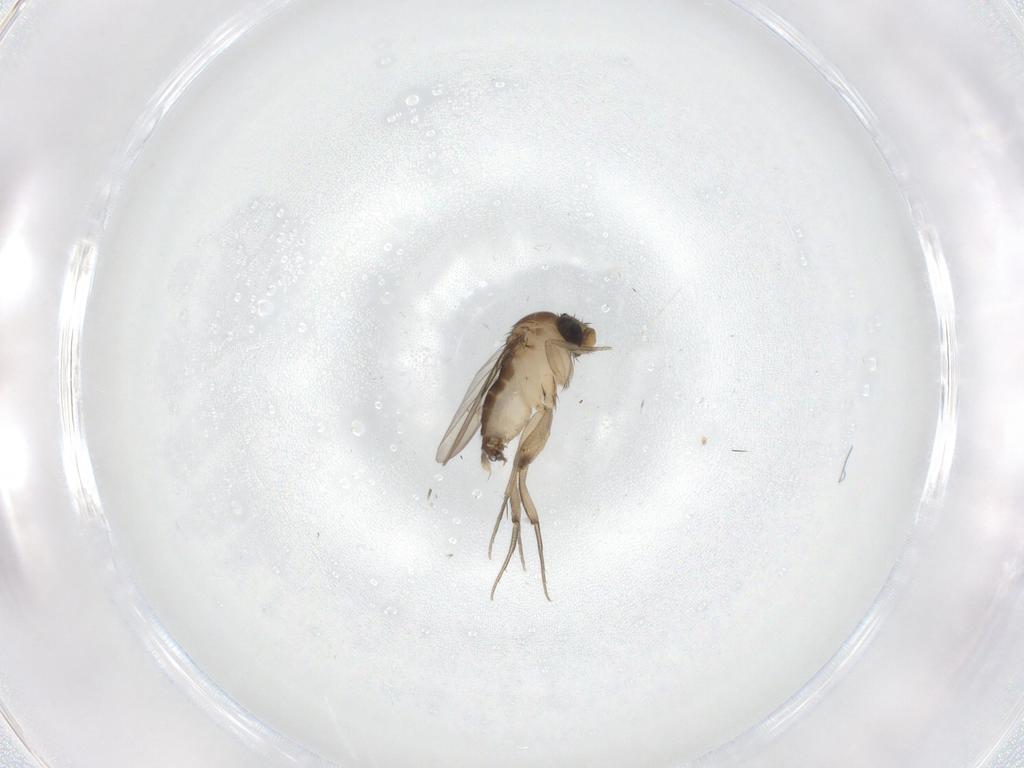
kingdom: Animalia
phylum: Arthropoda
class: Insecta
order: Diptera
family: Phoridae
